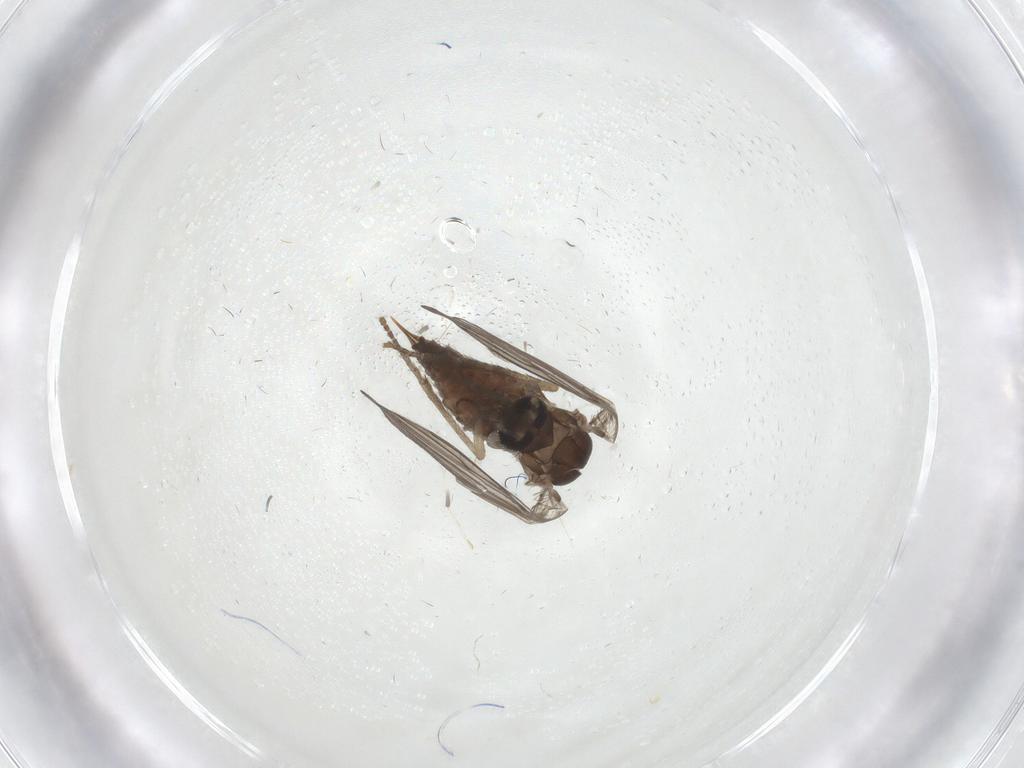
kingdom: Animalia
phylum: Arthropoda
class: Insecta
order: Diptera
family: Psychodidae
